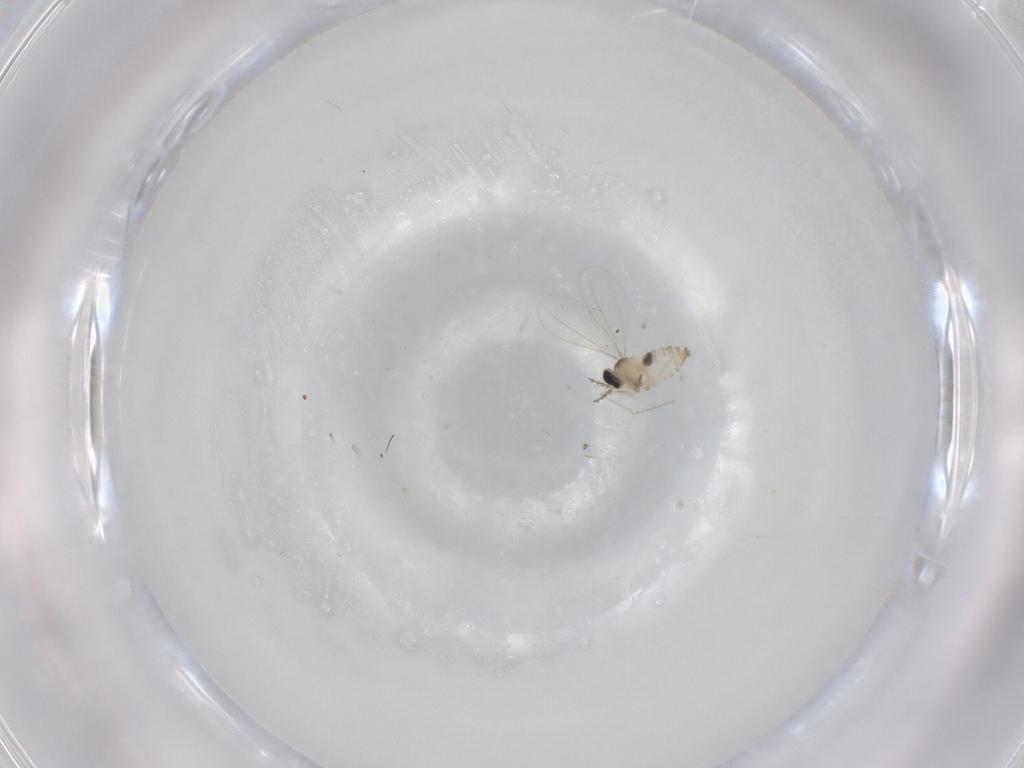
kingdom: Animalia
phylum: Arthropoda
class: Insecta
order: Diptera
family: Cecidomyiidae
